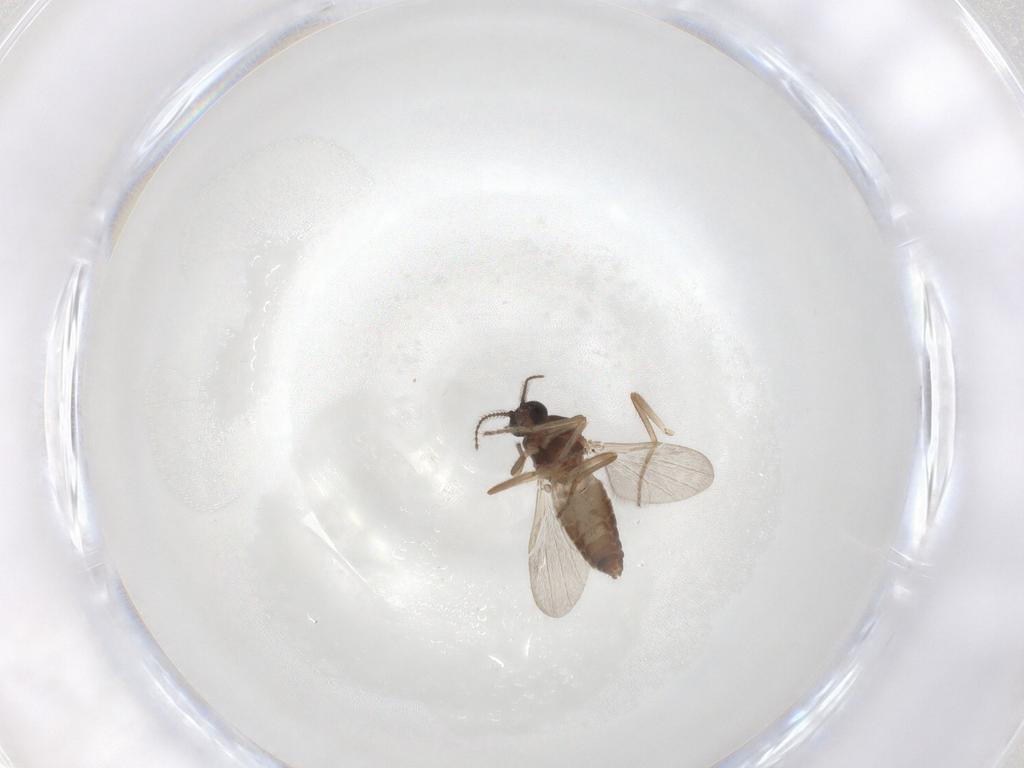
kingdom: Animalia
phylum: Arthropoda
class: Insecta
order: Diptera
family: Ceratopogonidae
